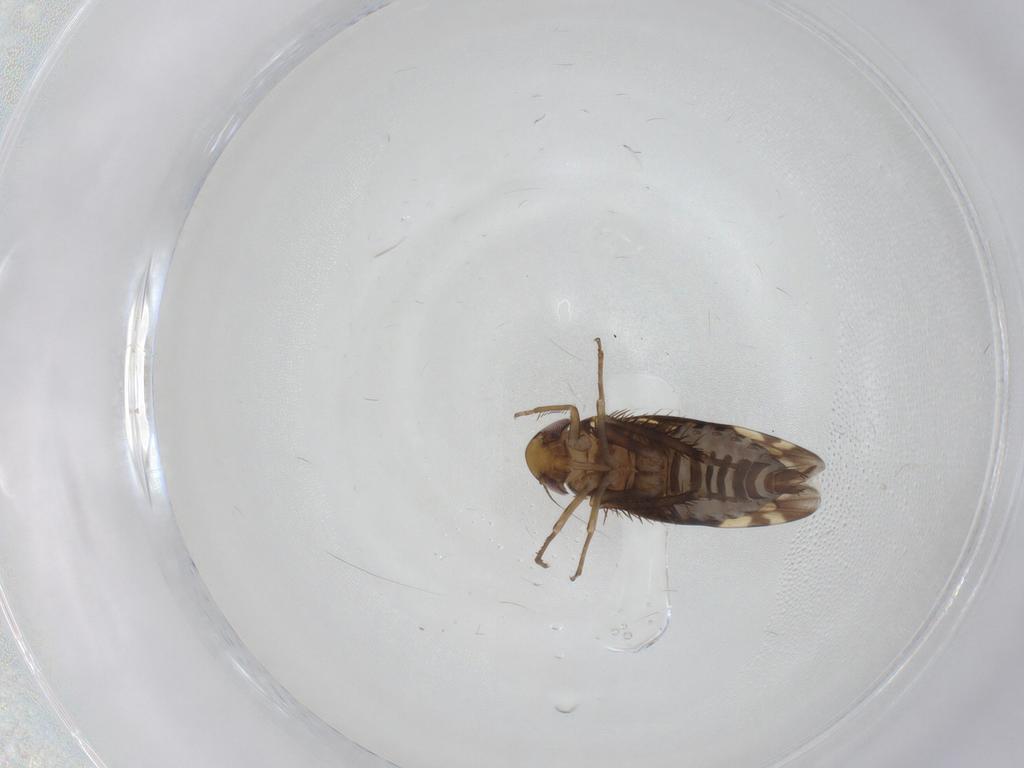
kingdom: Animalia
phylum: Arthropoda
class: Insecta
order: Hemiptera
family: Cicadellidae
